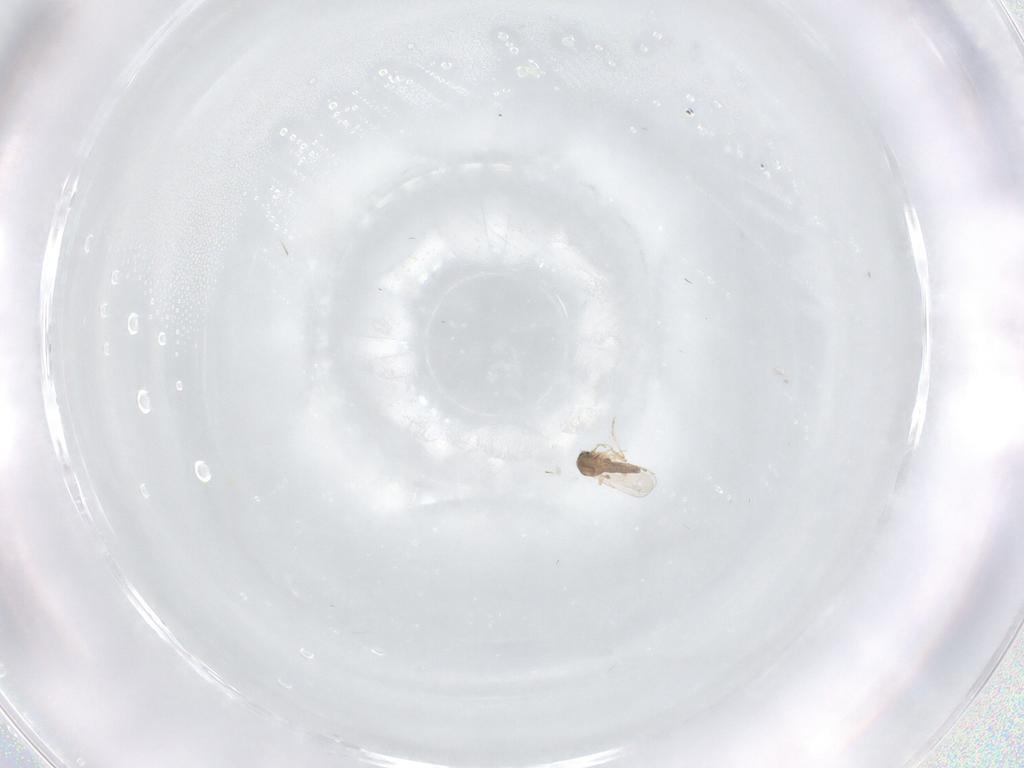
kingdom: Animalia
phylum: Arthropoda
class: Insecta
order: Diptera
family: Ceratopogonidae
